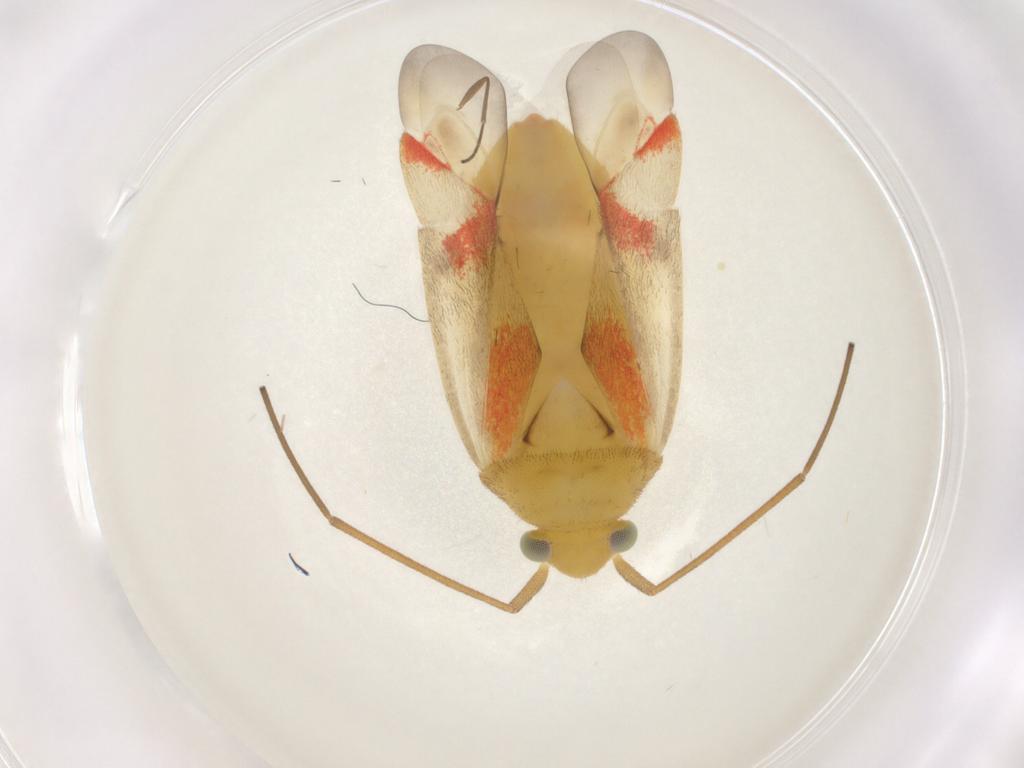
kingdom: Animalia
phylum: Arthropoda
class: Insecta
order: Hemiptera
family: Miridae
